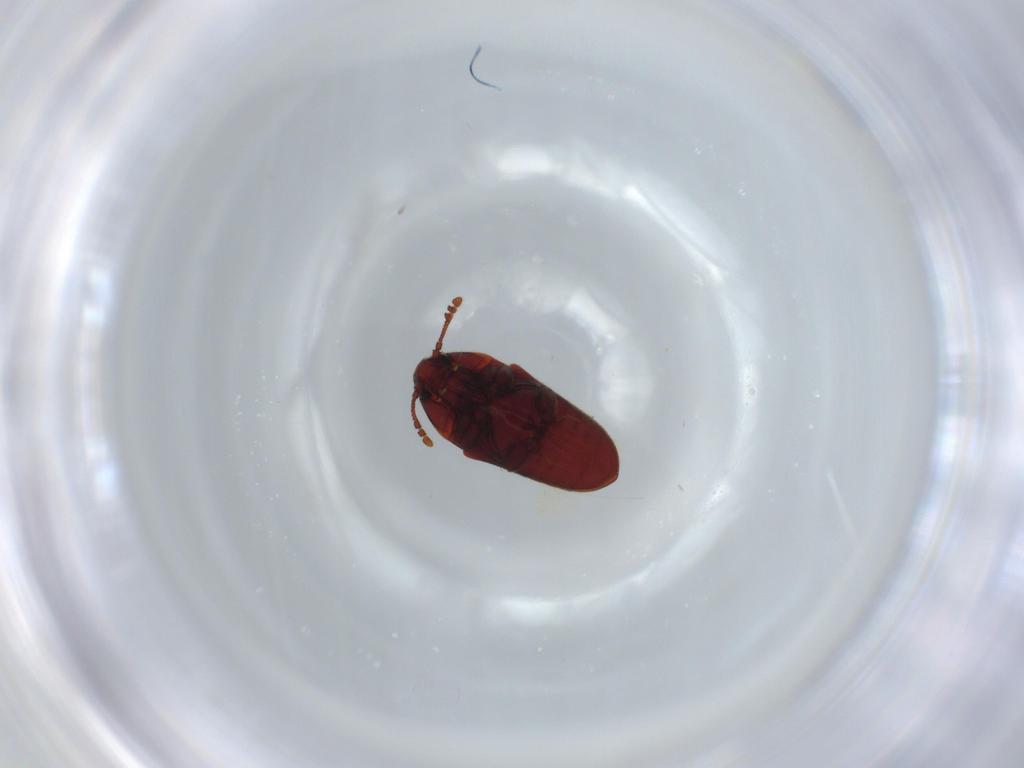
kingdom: Animalia
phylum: Arthropoda
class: Insecta
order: Coleoptera
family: Throscidae
